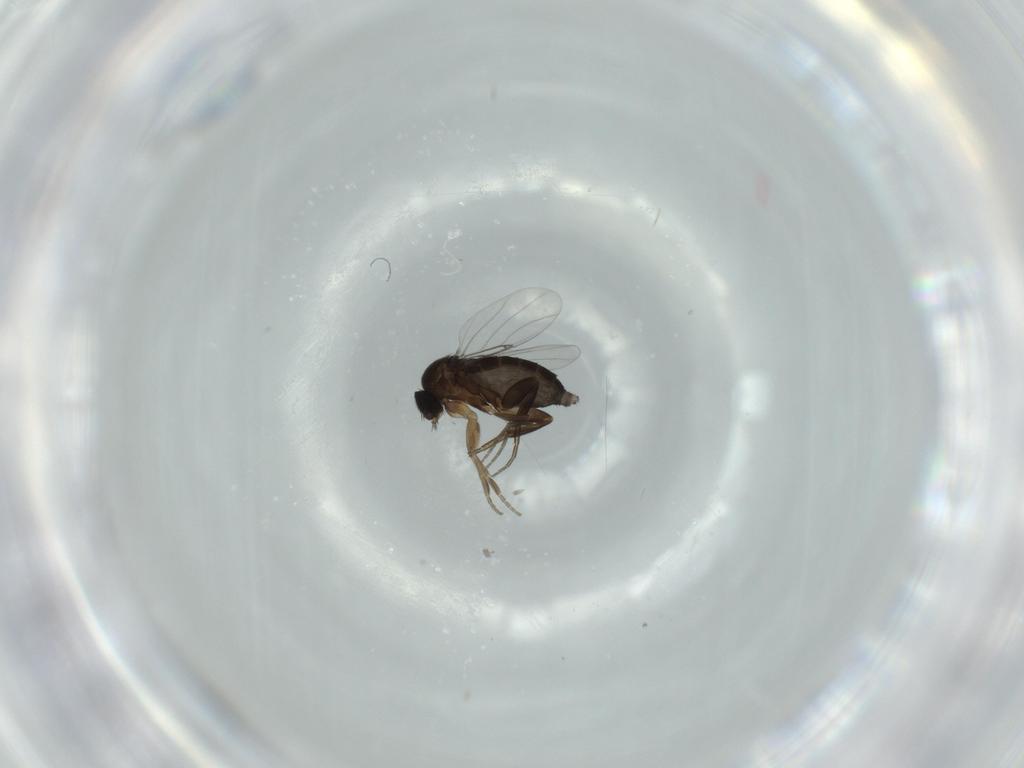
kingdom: Animalia
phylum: Arthropoda
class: Insecta
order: Diptera
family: Phoridae
